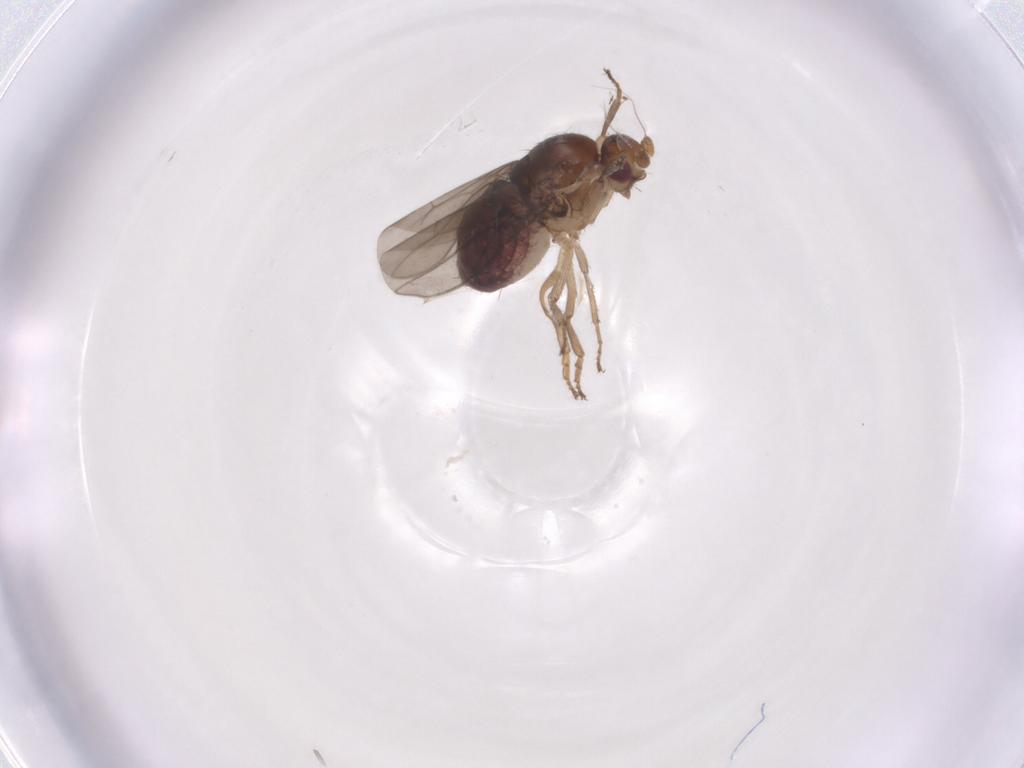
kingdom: Animalia
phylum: Arthropoda
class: Insecta
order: Diptera
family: Sphaeroceridae
